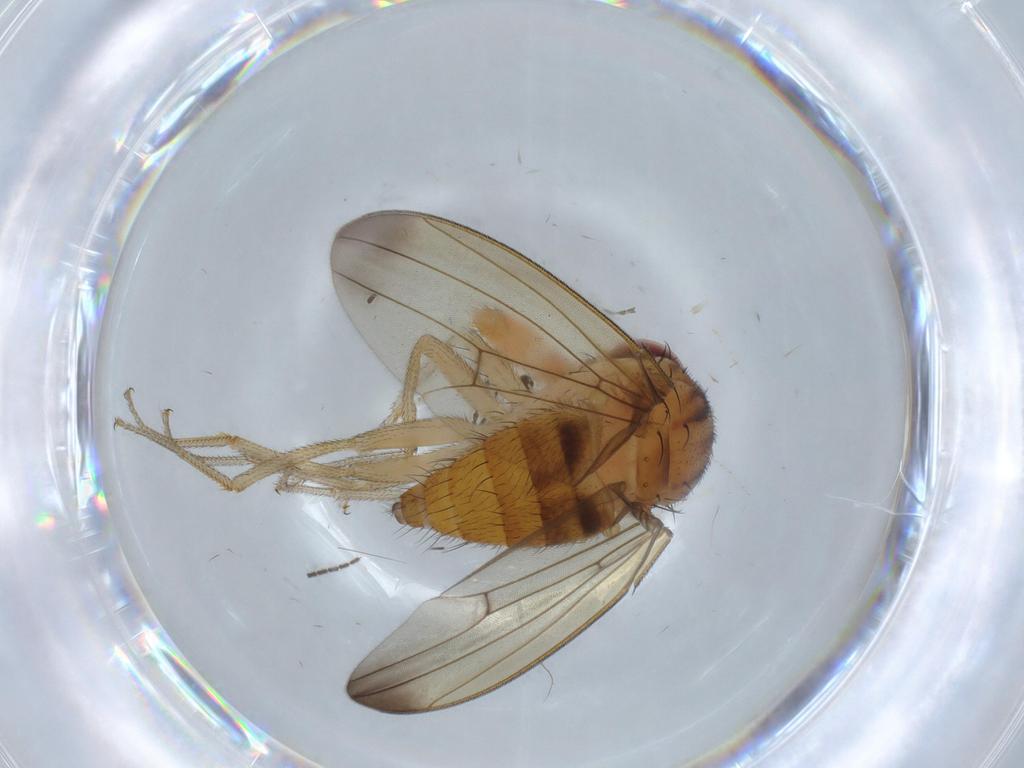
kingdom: Animalia
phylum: Arthropoda
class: Insecta
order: Diptera
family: Drosophilidae
